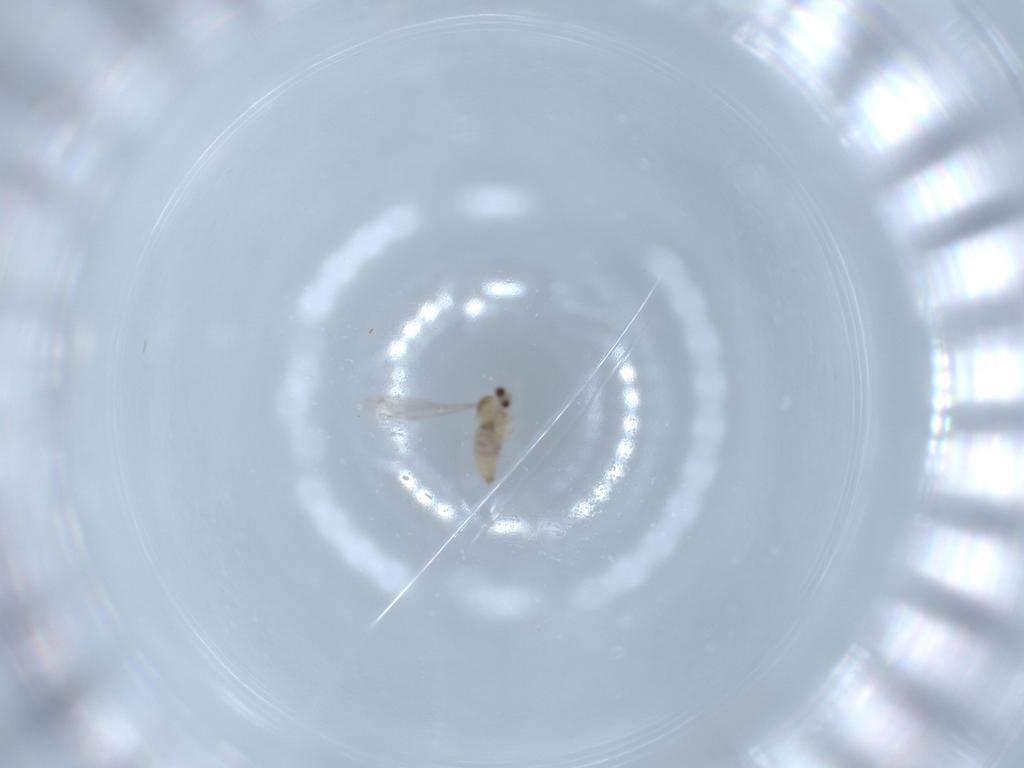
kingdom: Animalia
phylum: Arthropoda
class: Insecta
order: Diptera
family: Cecidomyiidae
